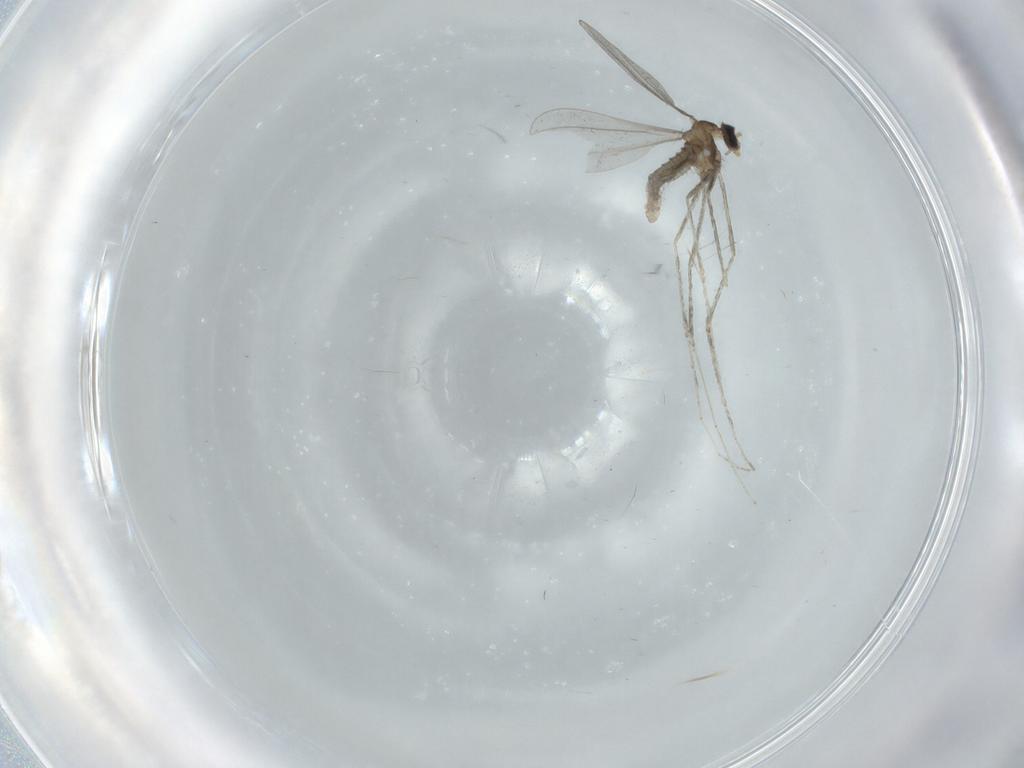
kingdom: Animalia
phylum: Arthropoda
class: Insecta
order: Diptera
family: Cecidomyiidae
